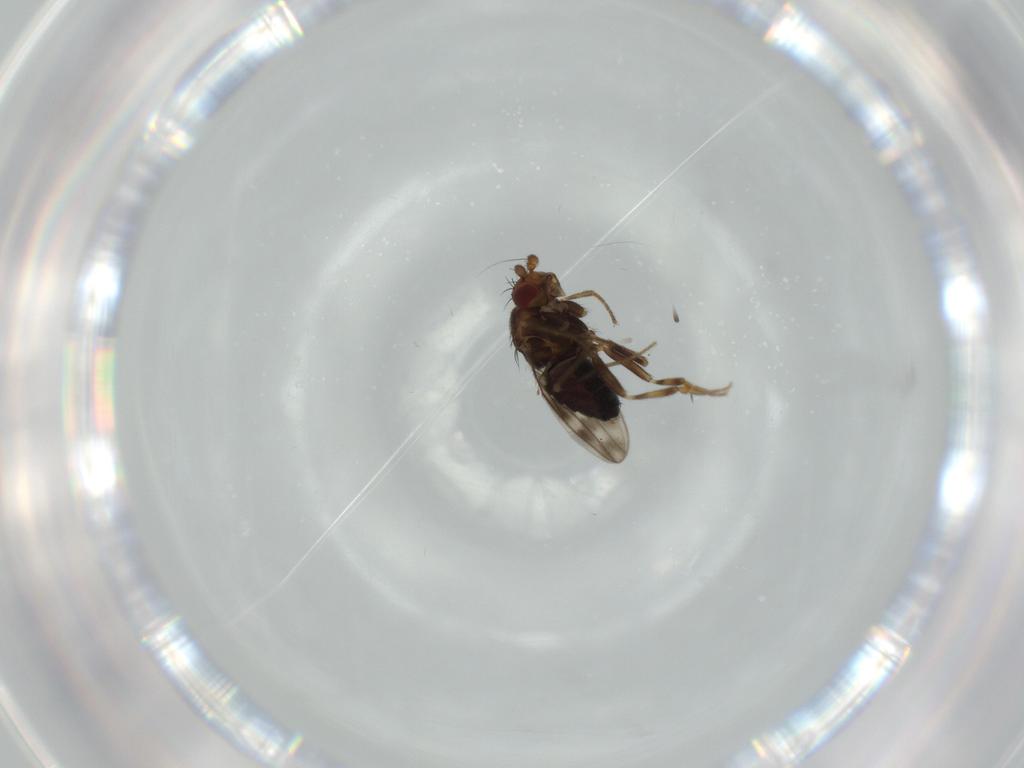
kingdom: Animalia
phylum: Arthropoda
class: Insecta
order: Diptera
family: Sphaeroceridae
